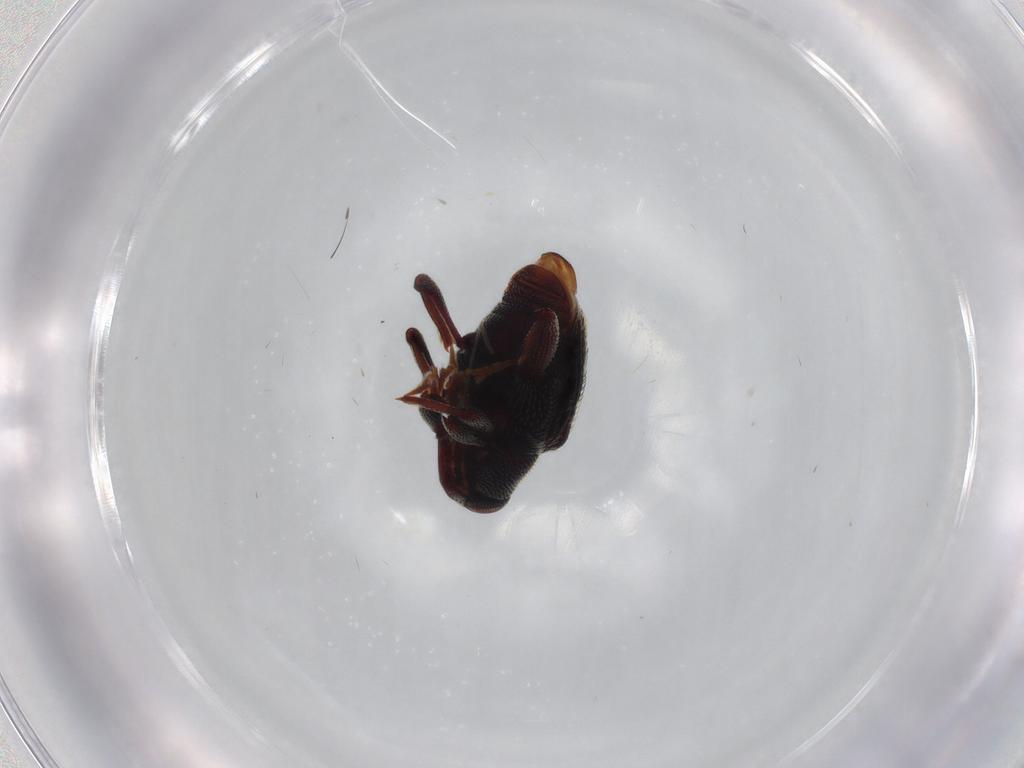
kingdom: Animalia
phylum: Arthropoda
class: Insecta
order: Coleoptera
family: Curculionidae
